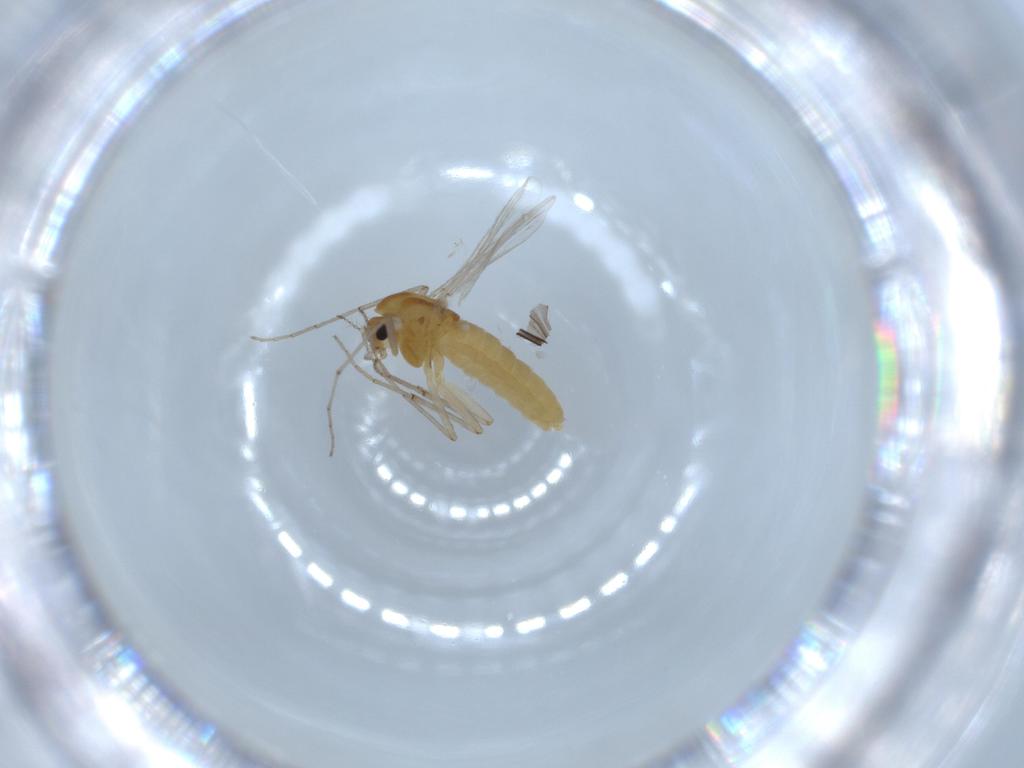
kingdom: Animalia
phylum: Arthropoda
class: Insecta
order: Diptera
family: Chironomidae
